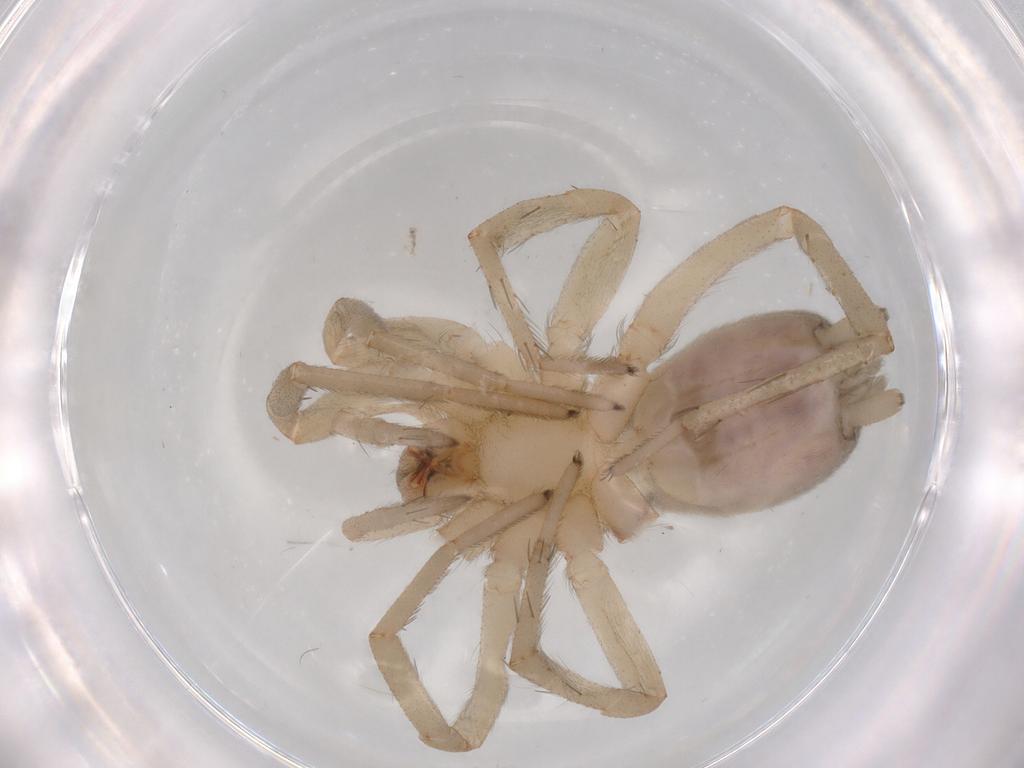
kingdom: Animalia
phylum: Arthropoda
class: Arachnida
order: Araneae
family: Gnaphosidae
